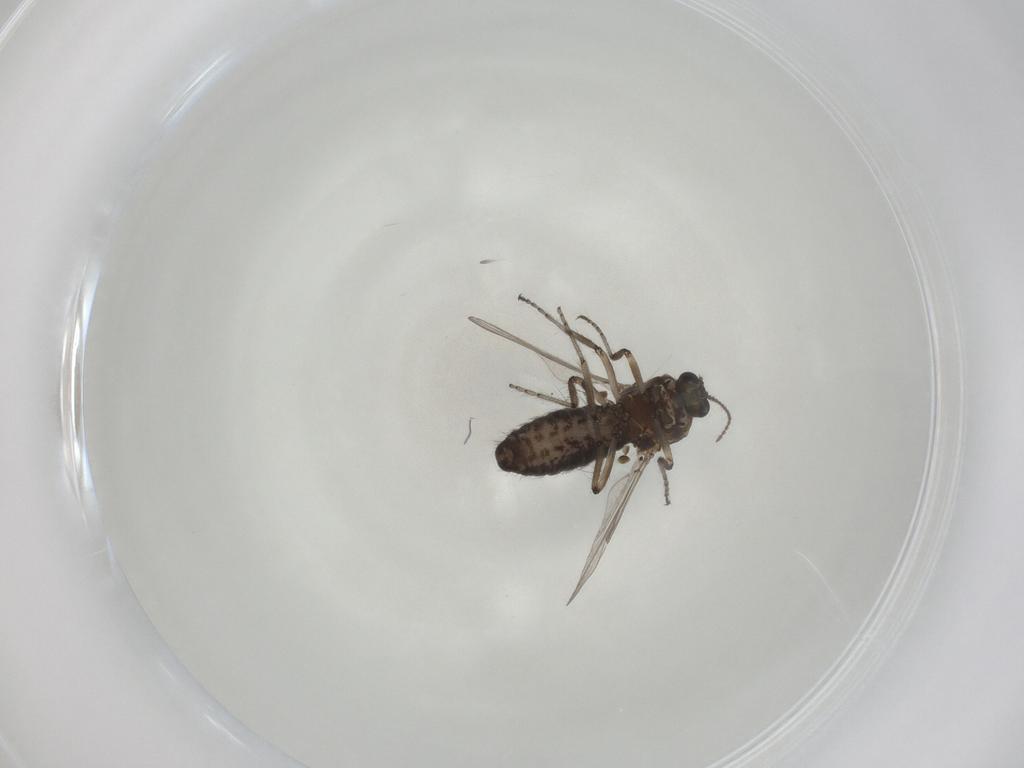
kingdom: Animalia
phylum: Arthropoda
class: Insecta
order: Diptera
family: Ceratopogonidae
